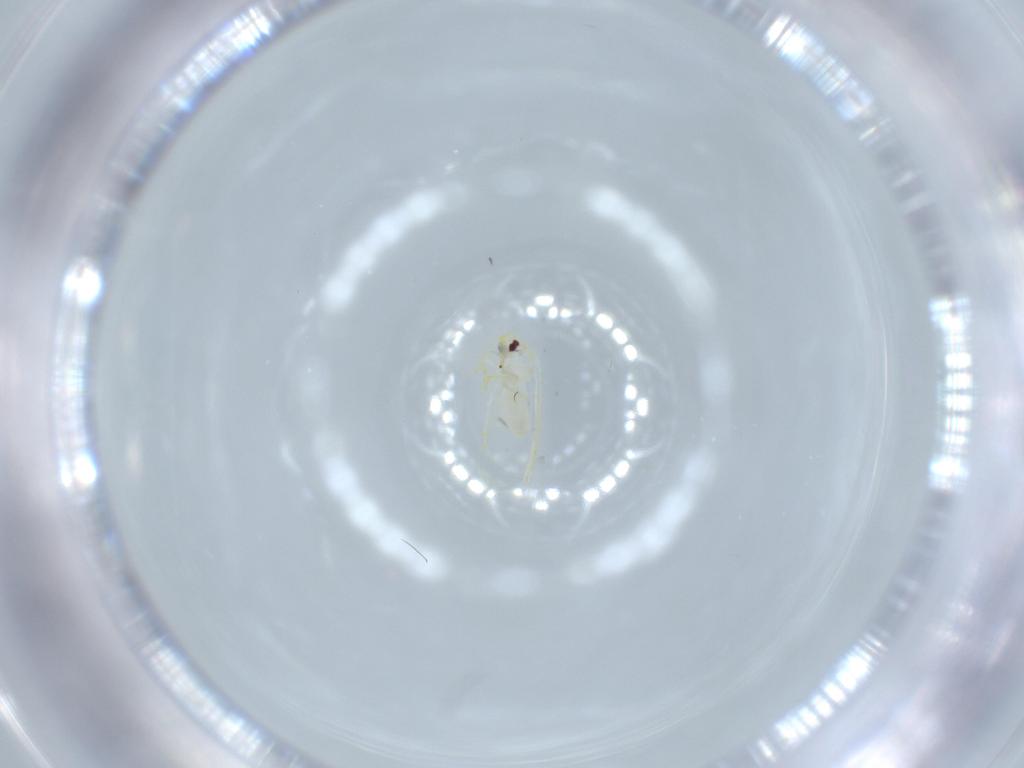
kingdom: Animalia
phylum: Arthropoda
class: Insecta
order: Hemiptera
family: Aleyrodidae
